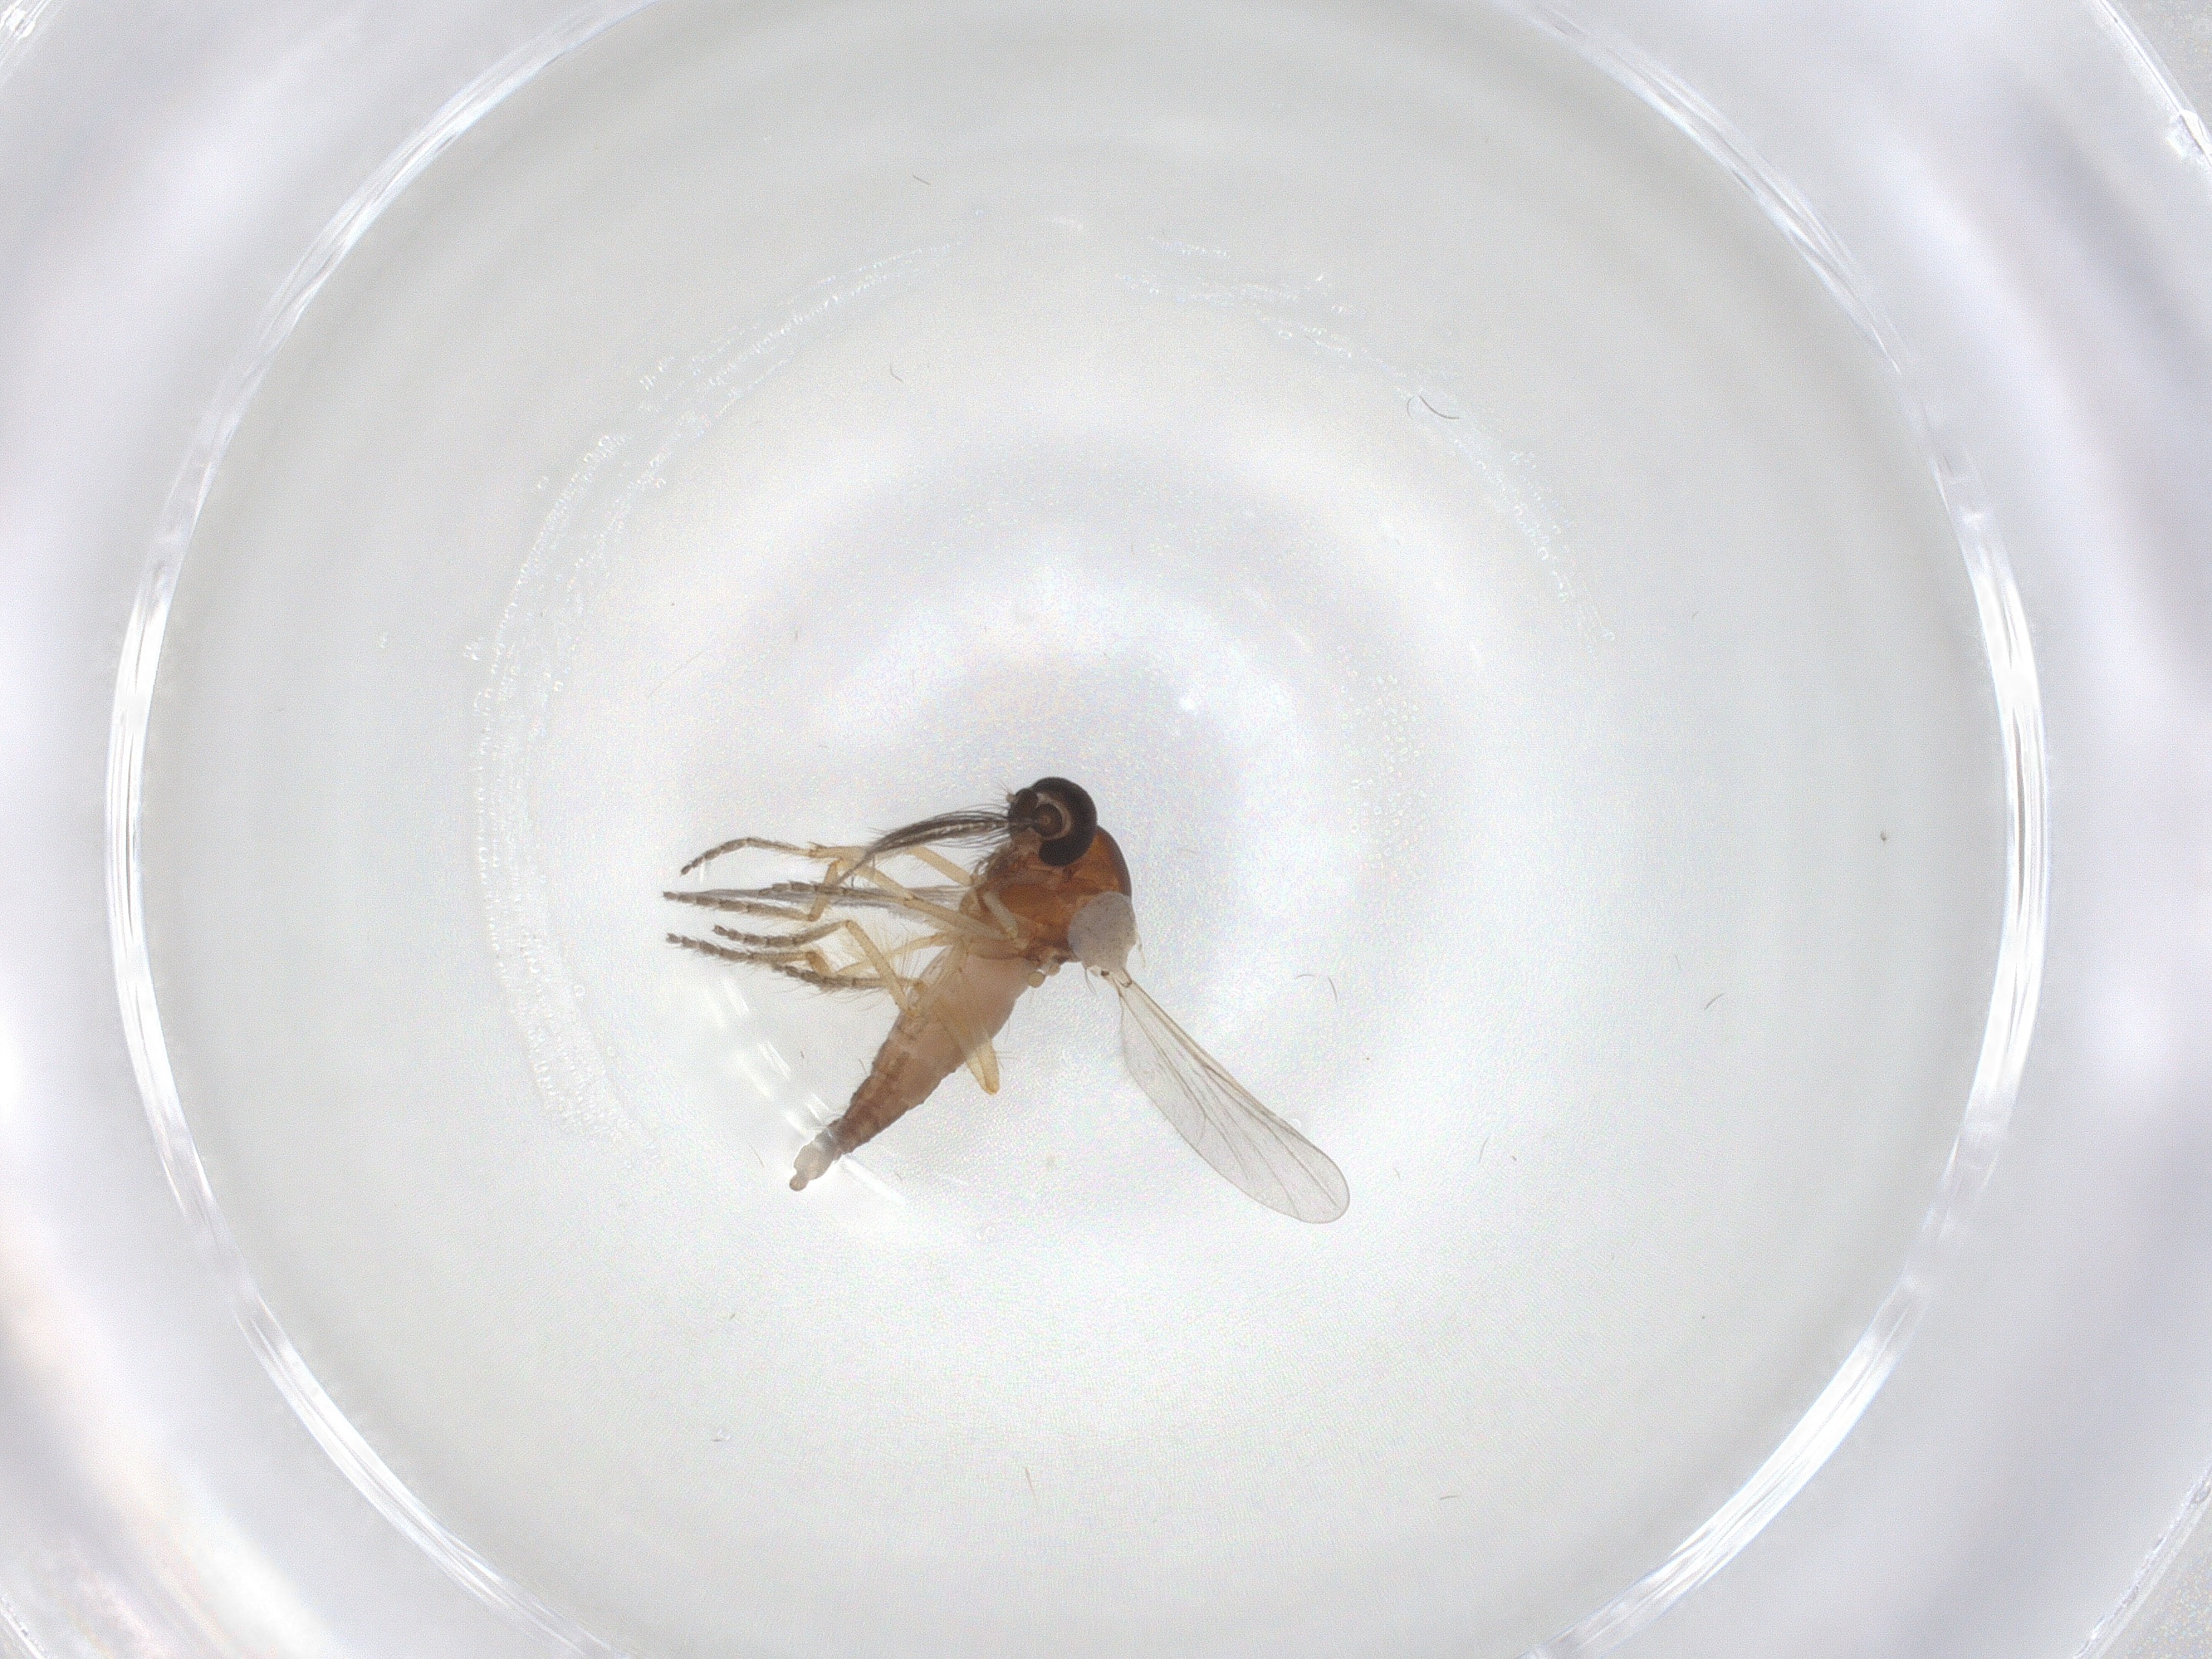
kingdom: Animalia
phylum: Arthropoda
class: Insecta
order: Diptera
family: Ceratopogonidae
